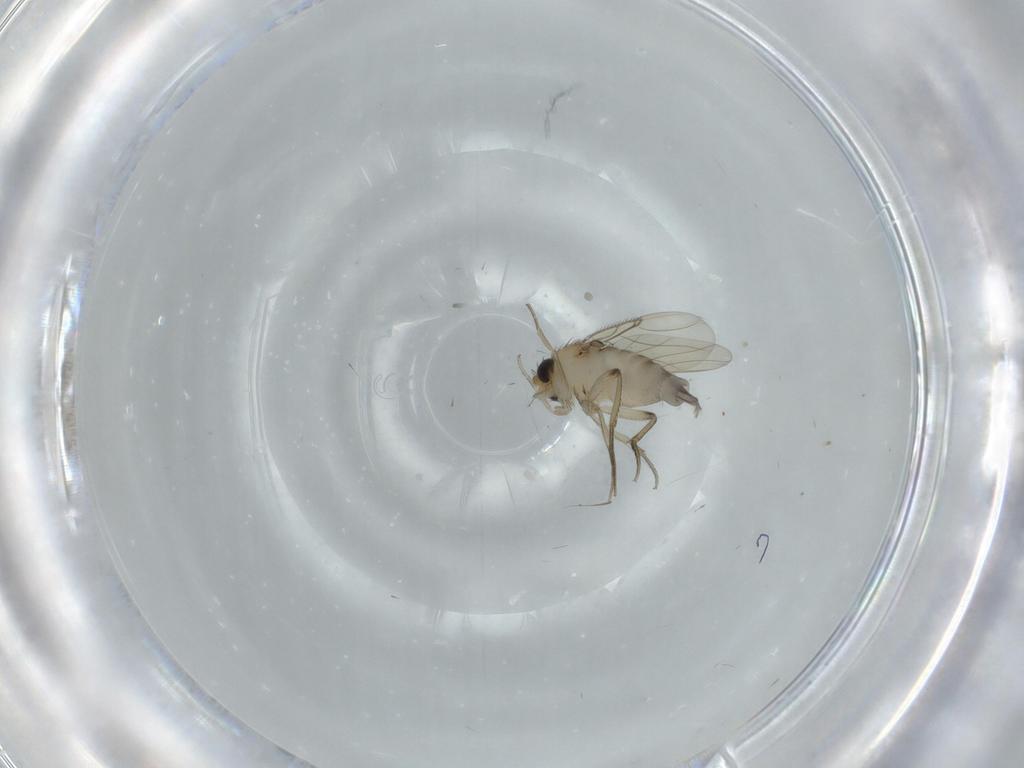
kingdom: Animalia
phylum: Arthropoda
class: Insecta
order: Diptera
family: Phoridae
